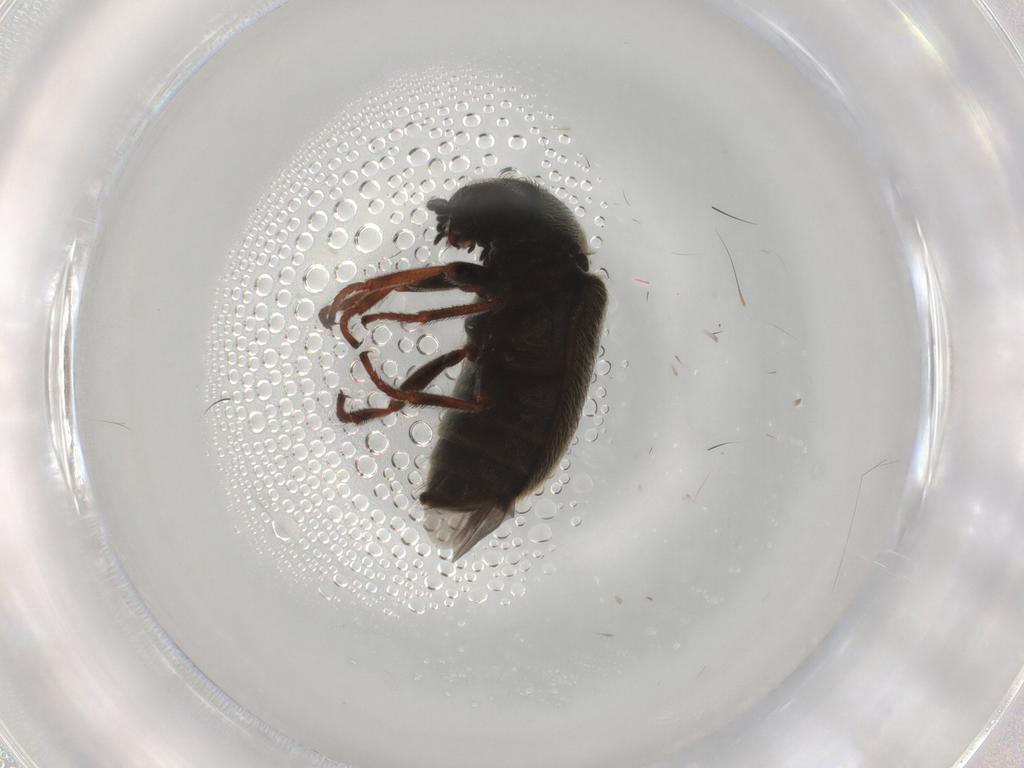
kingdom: Animalia
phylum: Arthropoda
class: Insecta
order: Coleoptera
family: Melyridae
